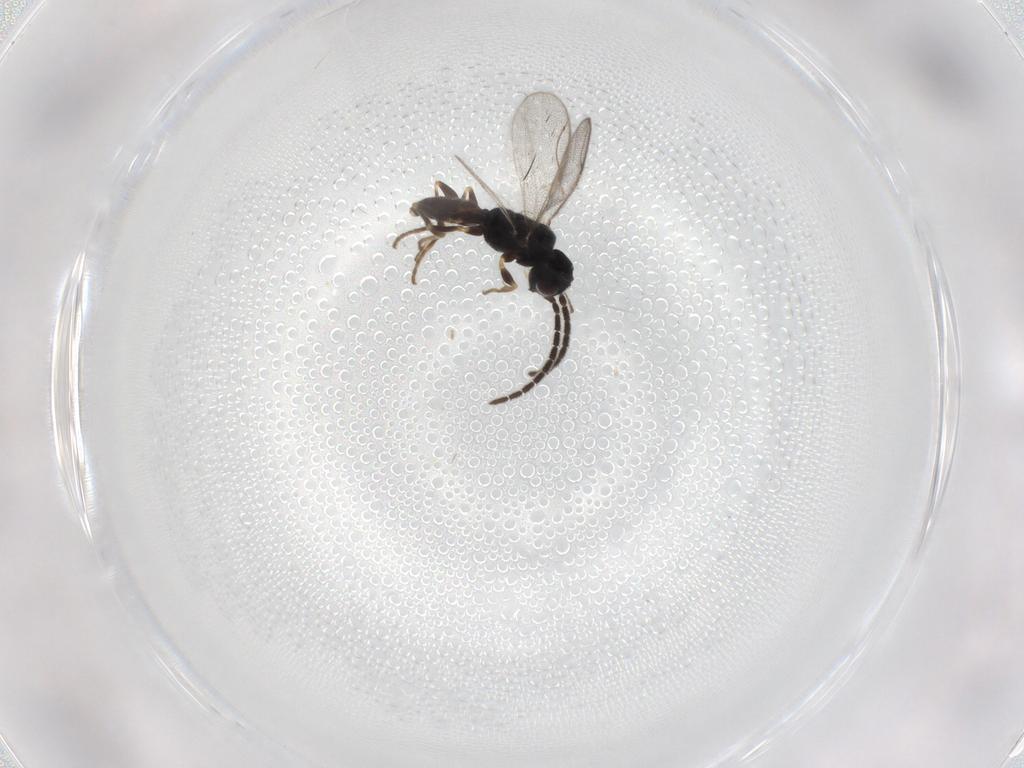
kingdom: Animalia
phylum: Arthropoda
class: Insecta
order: Hymenoptera
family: Dryinidae
